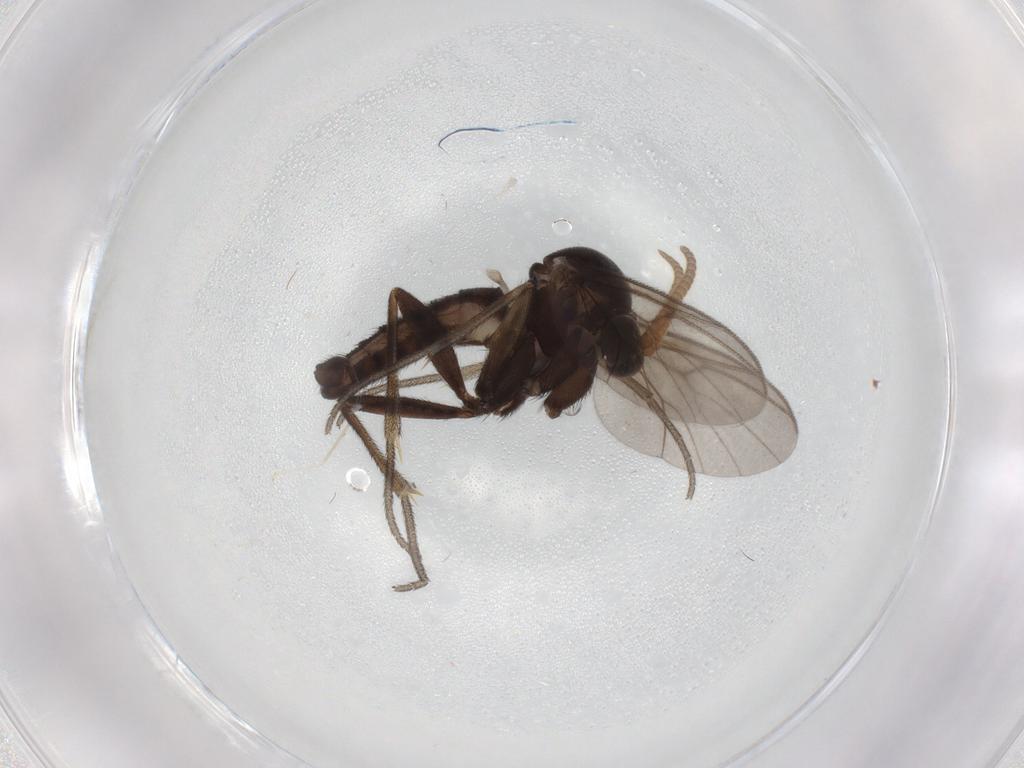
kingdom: Animalia
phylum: Arthropoda
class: Insecta
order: Diptera
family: Mycetophilidae
